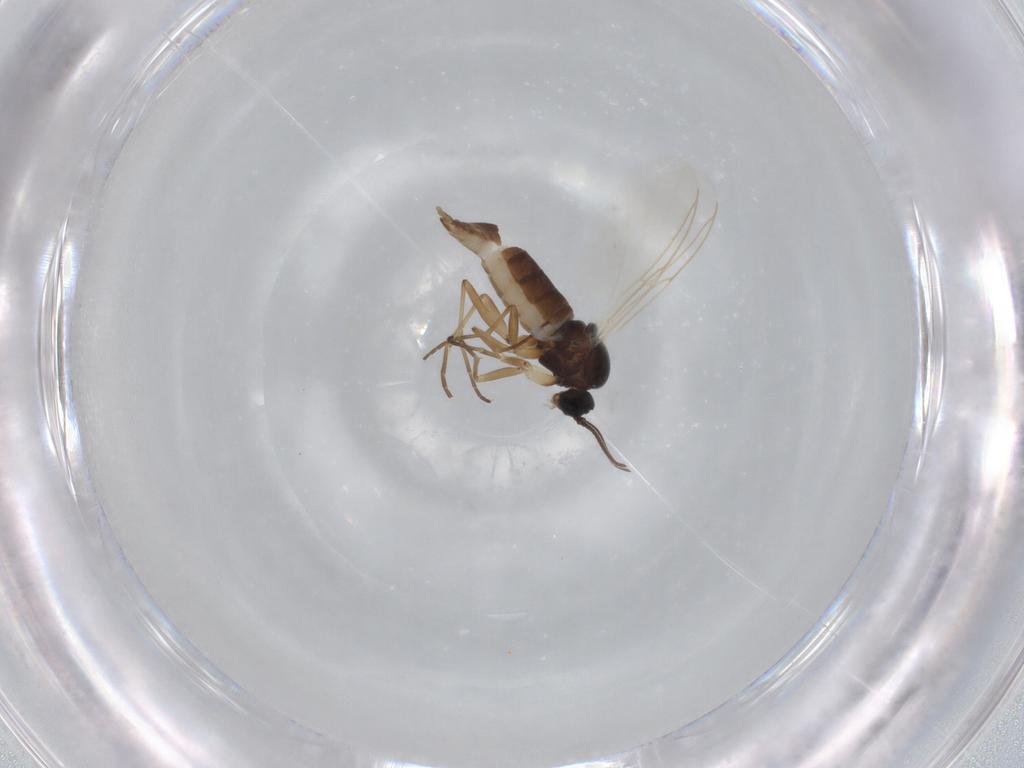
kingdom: Animalia
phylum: Arthropoda
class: Insecta
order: Diptera
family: Sciaridae
